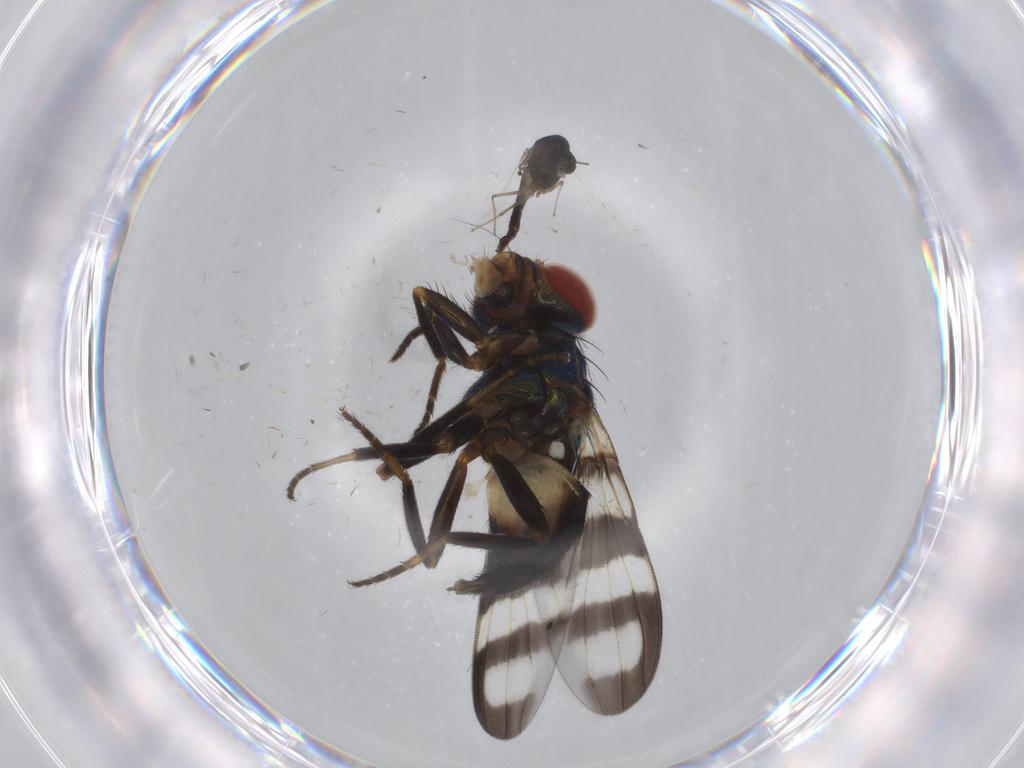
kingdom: Animalia
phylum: Arthropoda
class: Insecta
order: Diptera
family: Chironomidae
